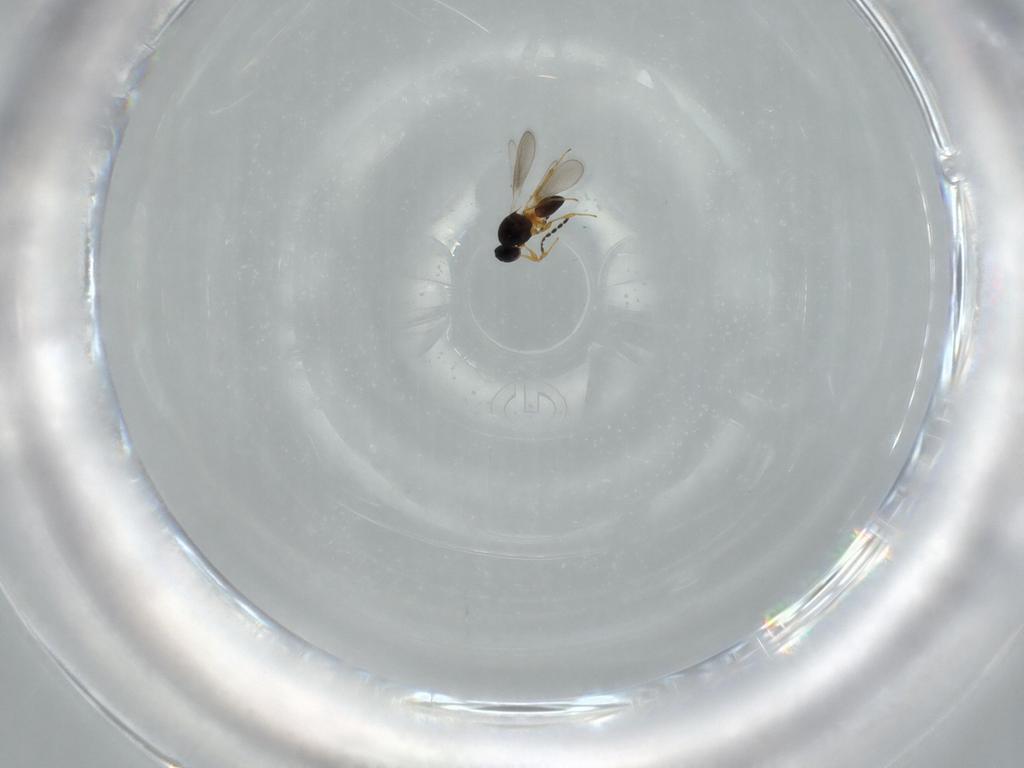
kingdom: Animalia
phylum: Arthropoda
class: Insecta
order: Hymenoptera
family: Platygastridae
